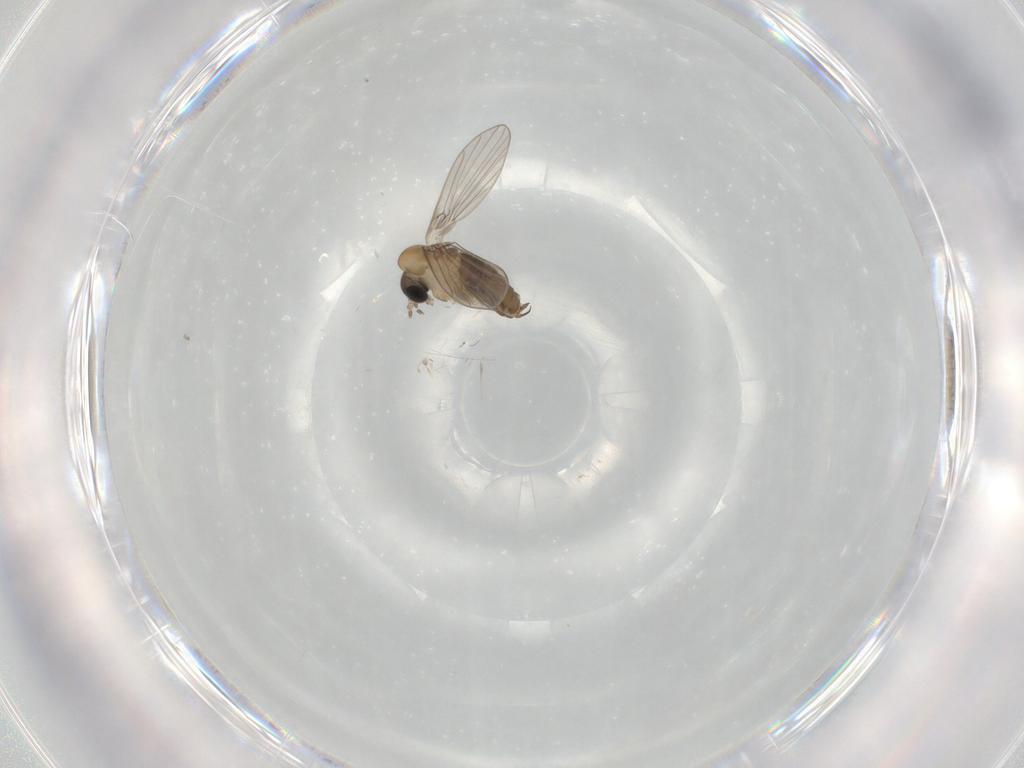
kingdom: Animalia
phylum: Arthropoda
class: Insecta
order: Diptera
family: Psychodidae
